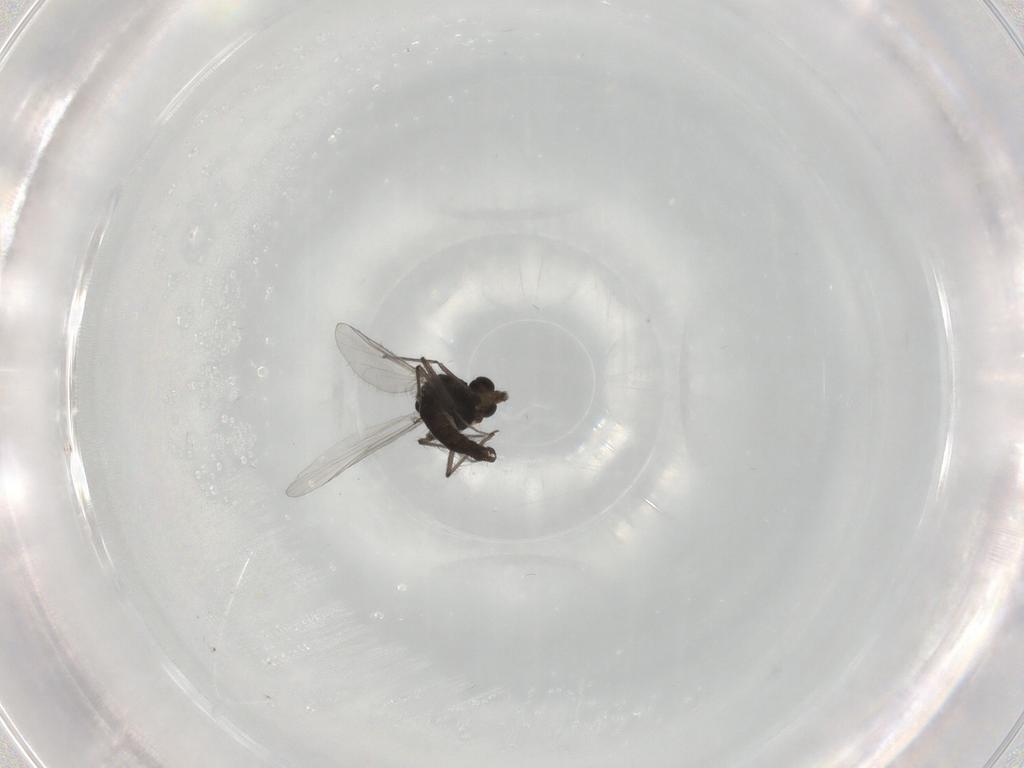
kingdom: Animalia
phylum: Arthropoda
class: Insecta
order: Diptera
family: Chironomidae
